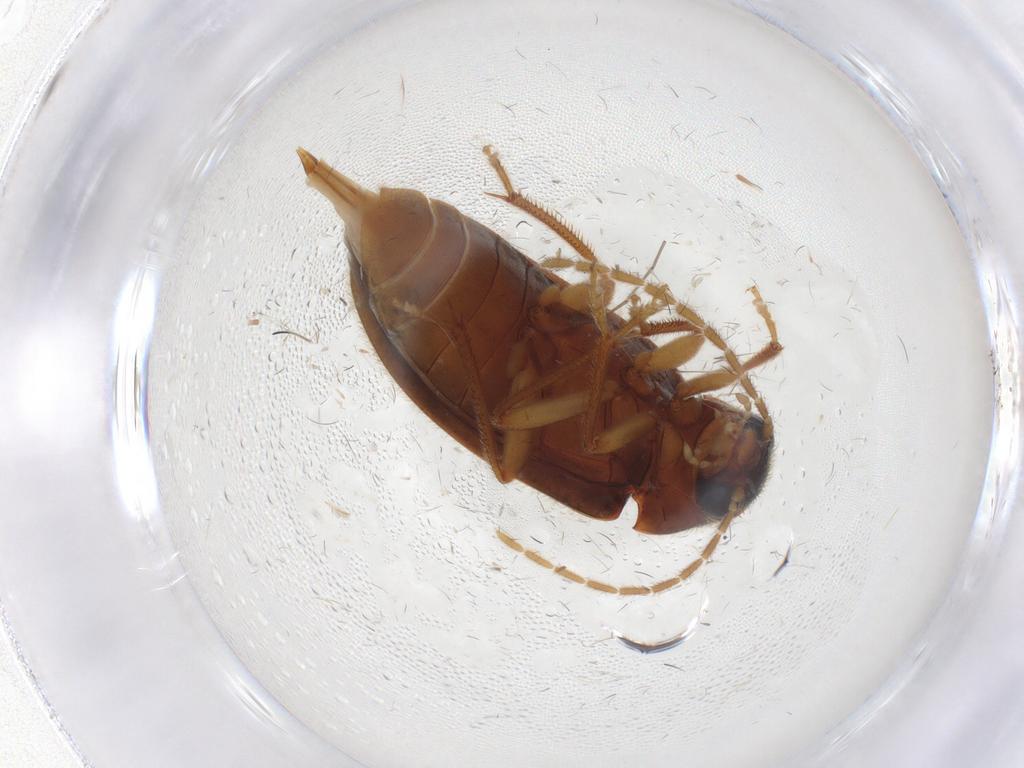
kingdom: Animalia
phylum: Arthropoda
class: Insecta
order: Coleoptera
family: Ptilodactylidae
